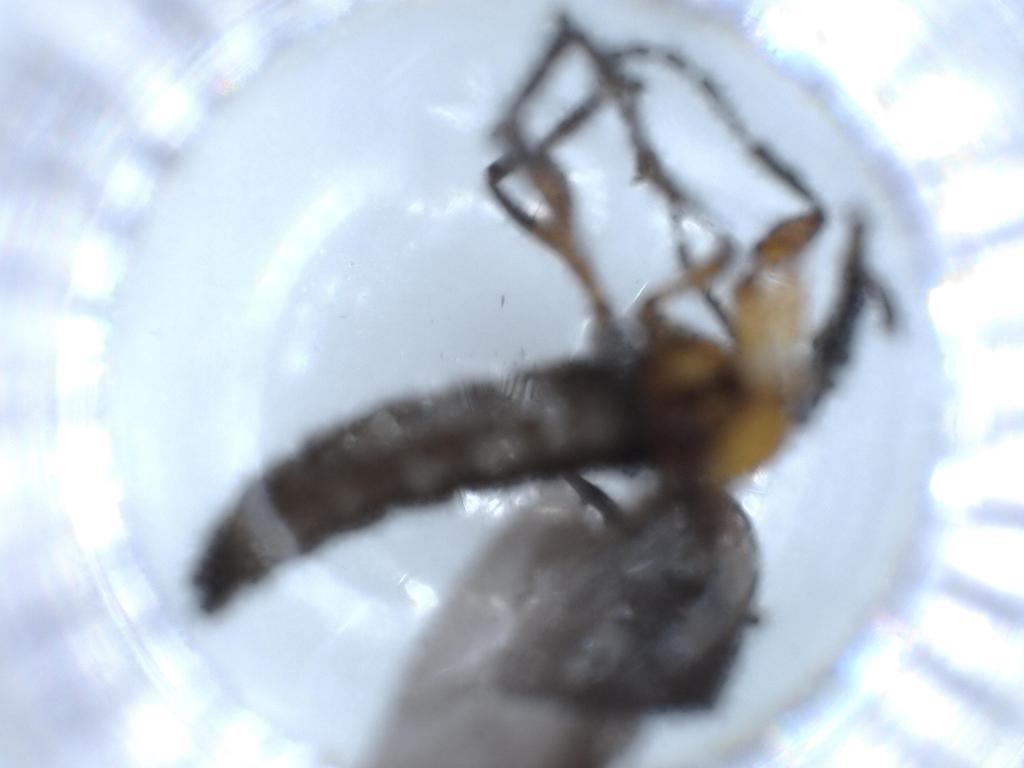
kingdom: Animalia
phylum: Arthropoda
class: Insecta
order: Diptera
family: Bibionidae
